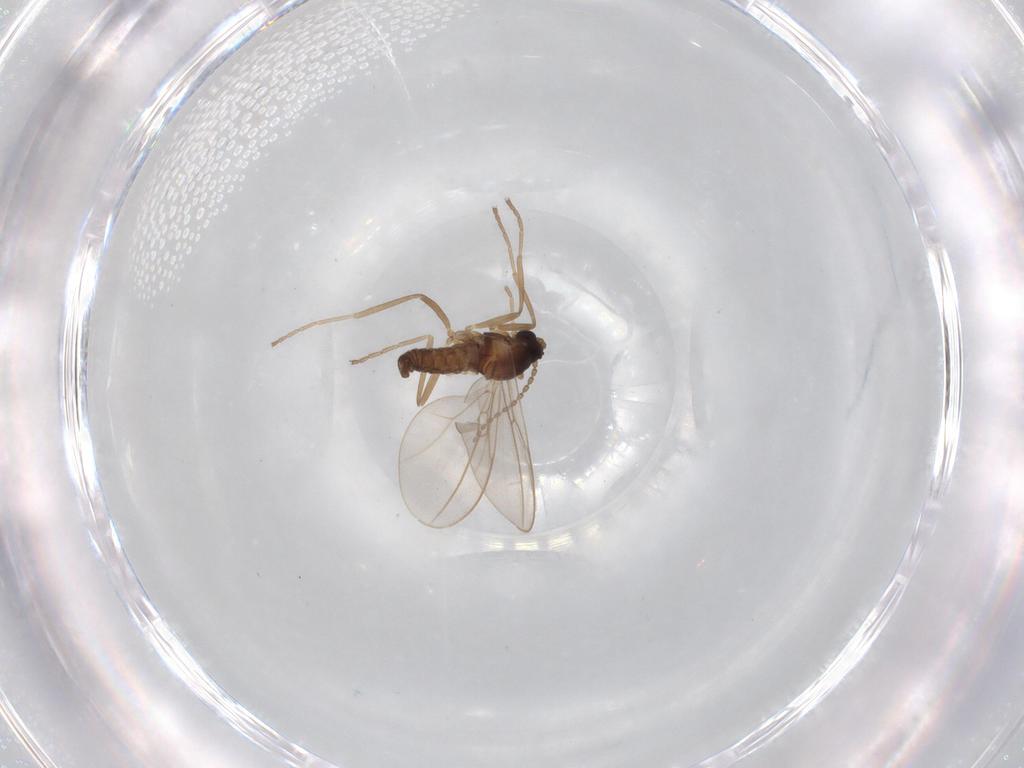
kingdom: Animalia
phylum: Arthropoda
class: Insecta
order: Diptera
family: Cecidomyiidae
